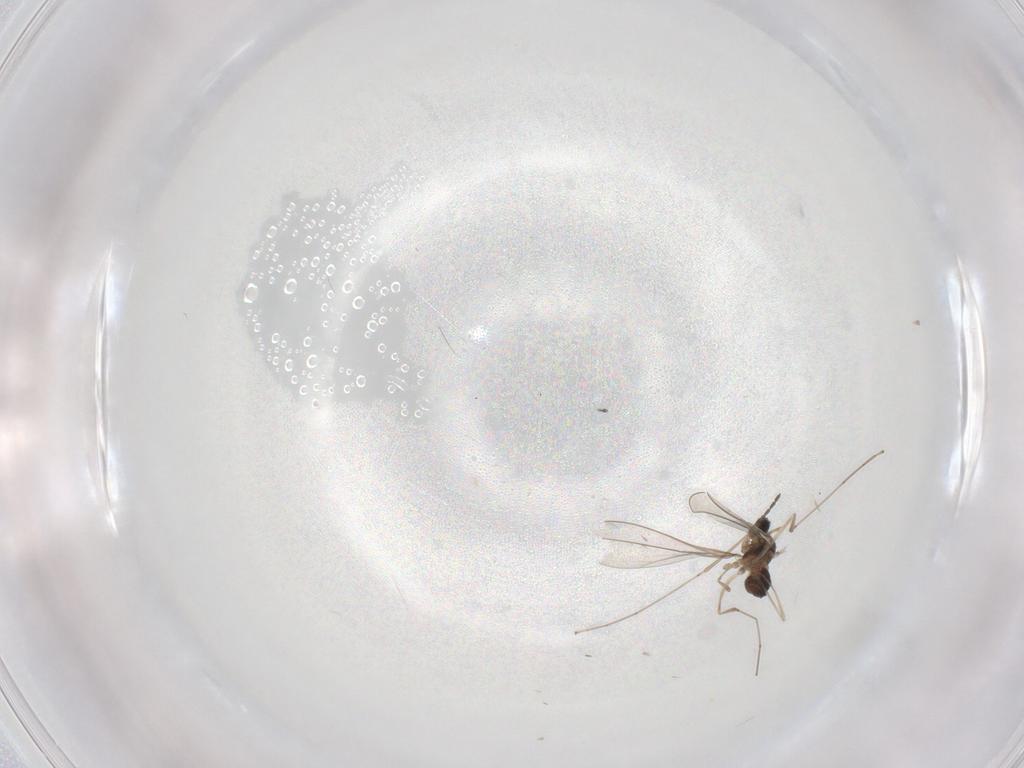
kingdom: Animalia
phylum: Arthropoda
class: Insecta
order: Diptera
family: Cecidomyiidae
